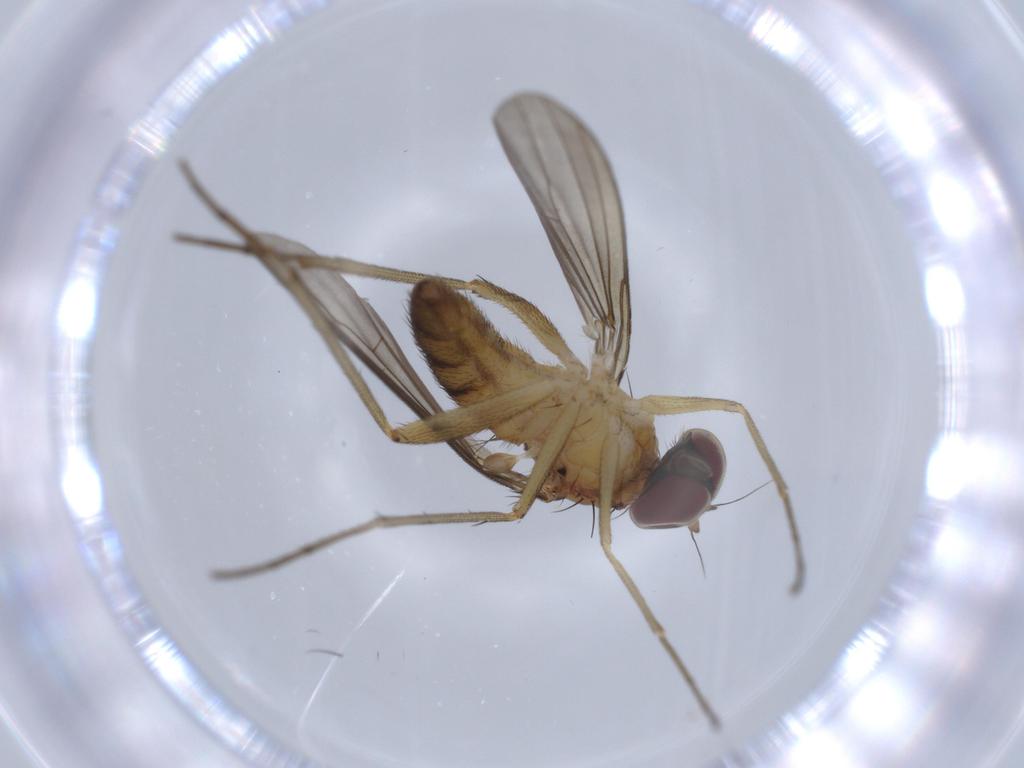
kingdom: Animalia
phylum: Arthropoda
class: Insecta
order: Diptera
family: Dolichopodidae
